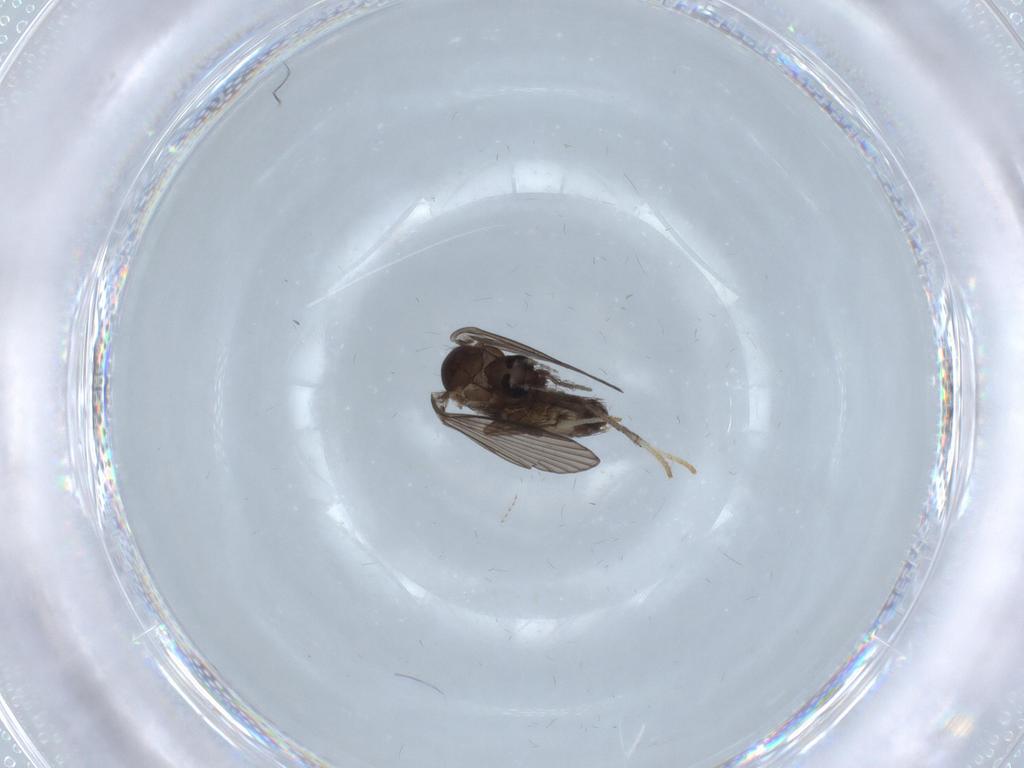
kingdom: Animalia
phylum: Arthropoda
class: Insecta
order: Diptera
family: Psychodidae
